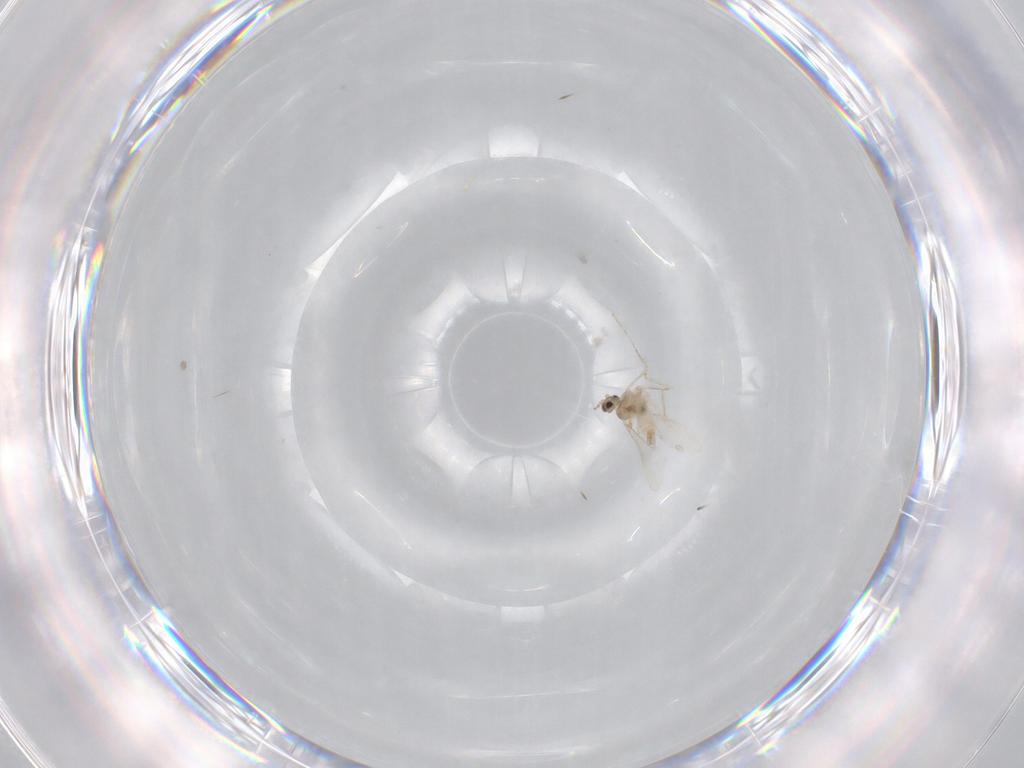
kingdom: Animalia
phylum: Arthropoda
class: Insecta
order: Diptera
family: Cecidomyiidae
